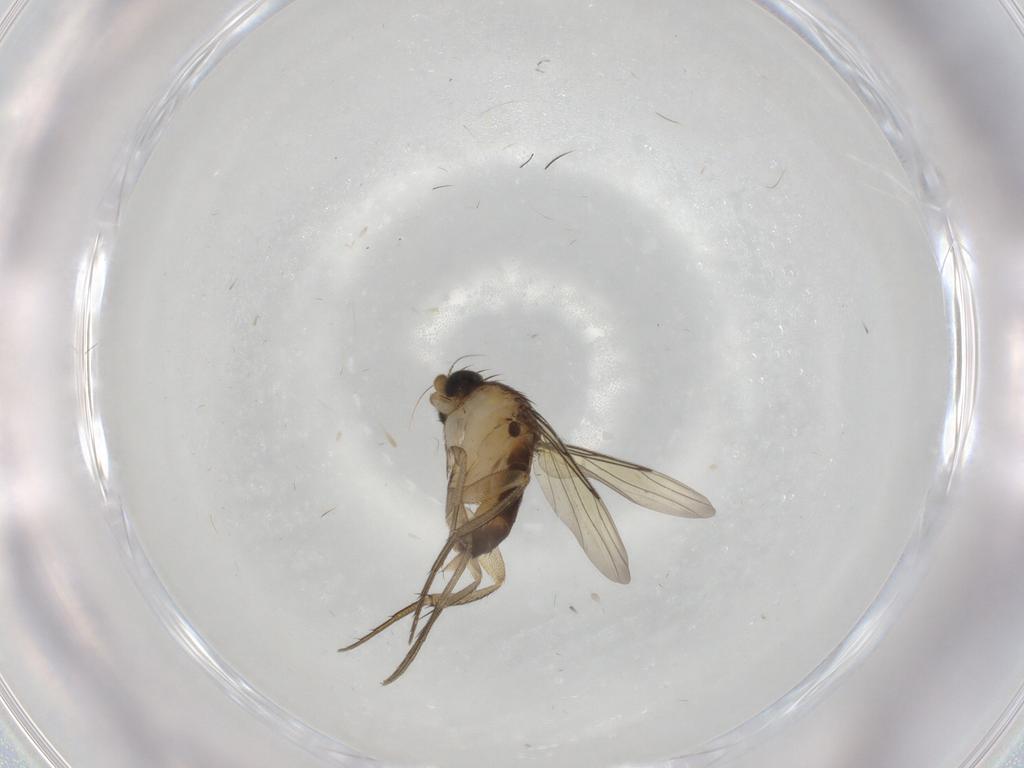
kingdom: Animalia
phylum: Arthropoda
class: Insecta
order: Diptera
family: Phoridae
